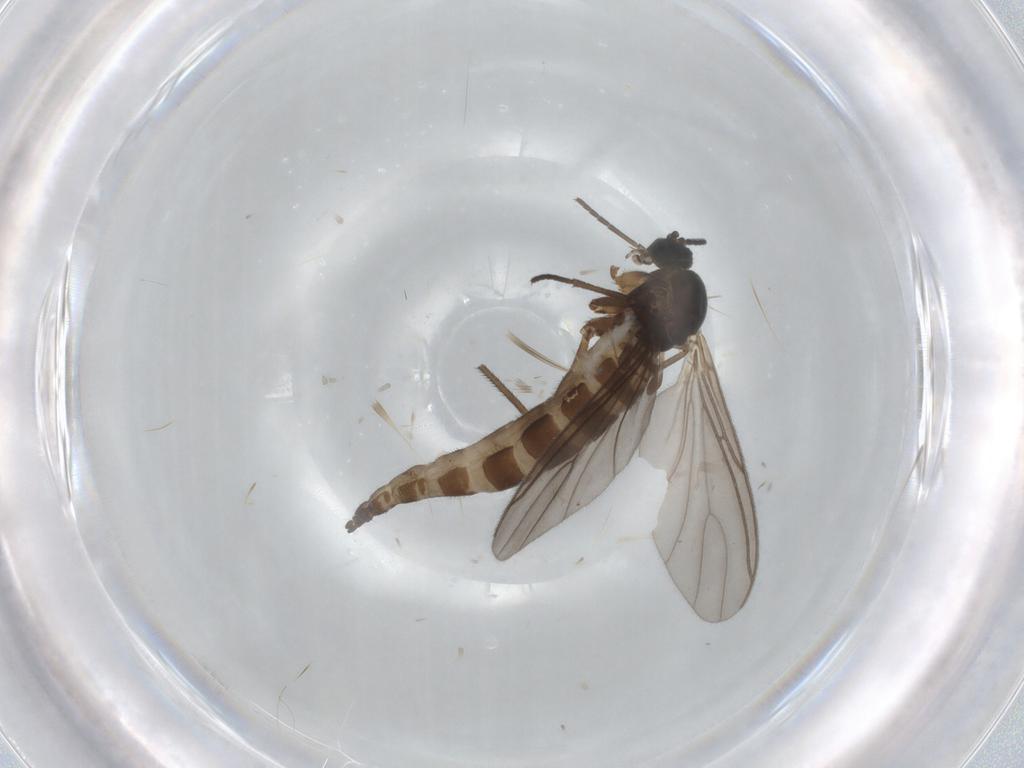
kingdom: Animalia
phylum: Arthropoda
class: Insecta
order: Diptera
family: Sciaridae
